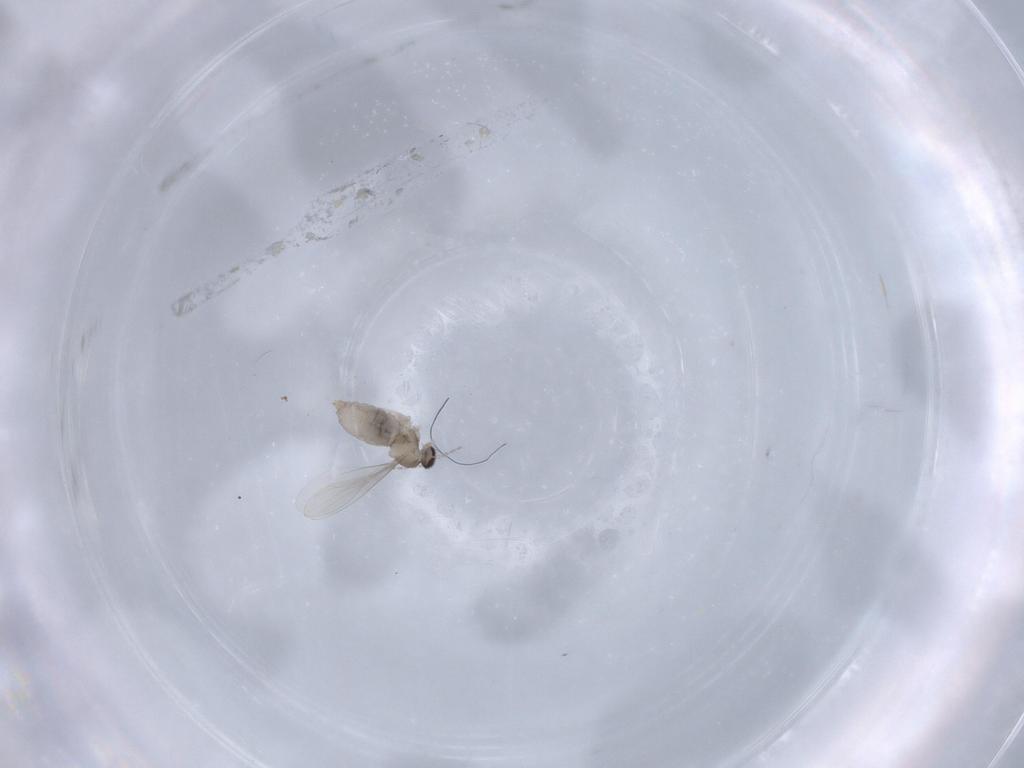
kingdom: Animalia
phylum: Arthropoda
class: Insecta
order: Diptera
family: Cecidomyiidae
